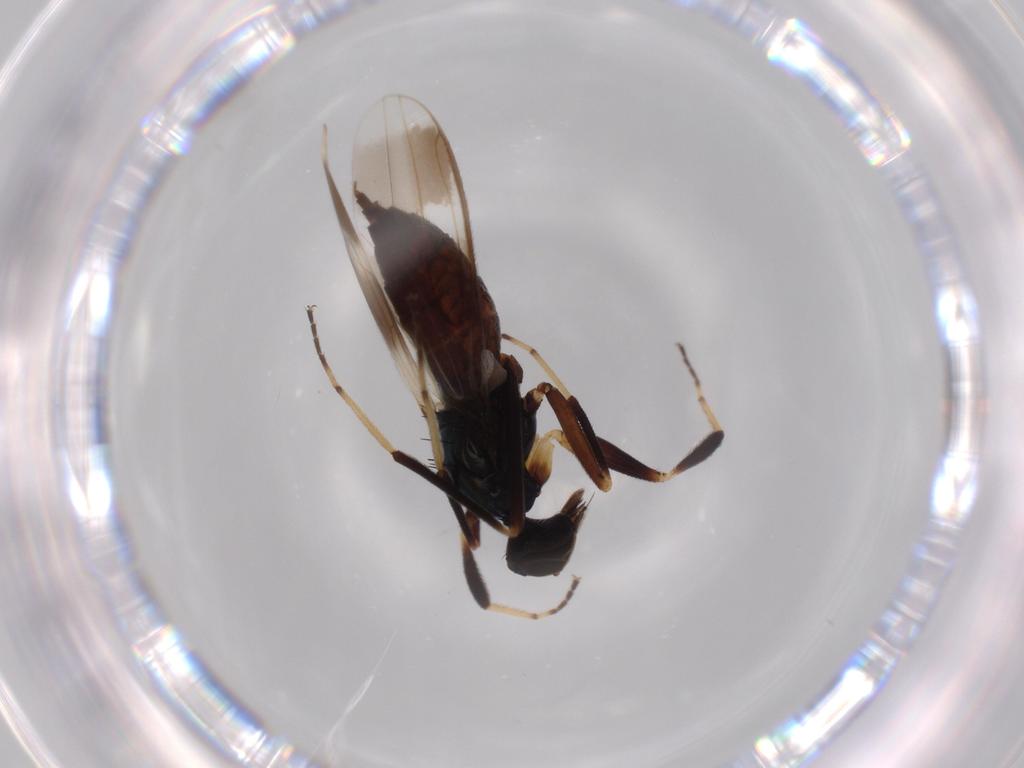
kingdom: Animalia
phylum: Arthropoda
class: Insecta
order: Diptera
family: Hybotidae
